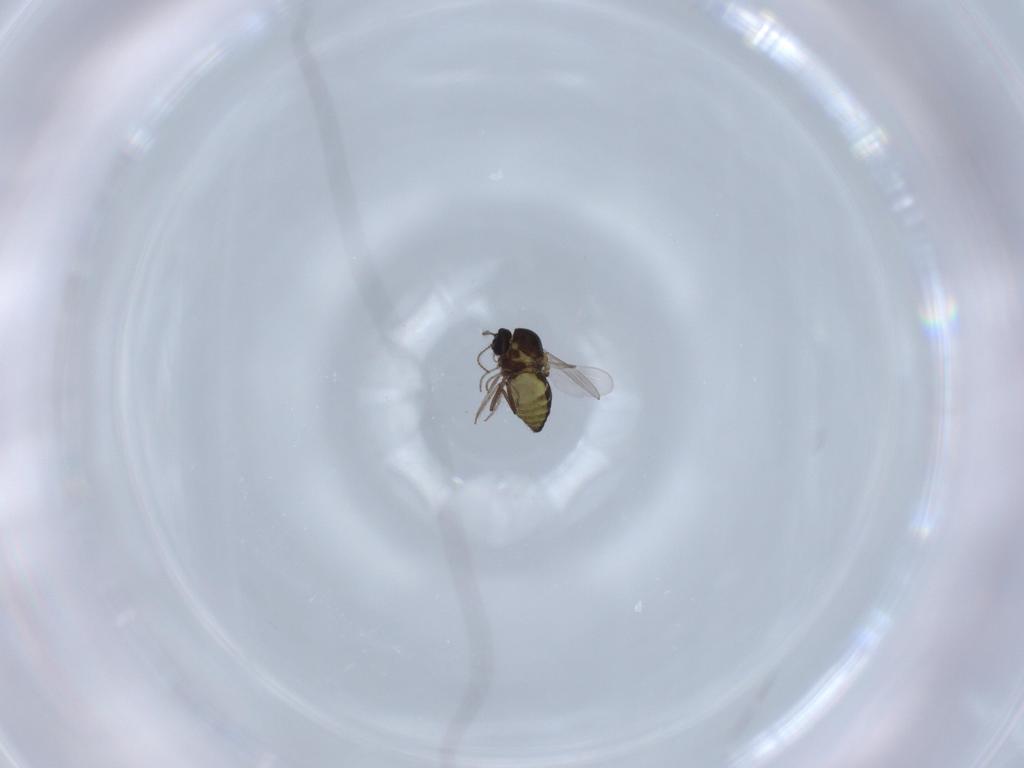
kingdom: Animalia
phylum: Arthropoda
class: Insecta
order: Diptera
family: Ceratopogonidae
